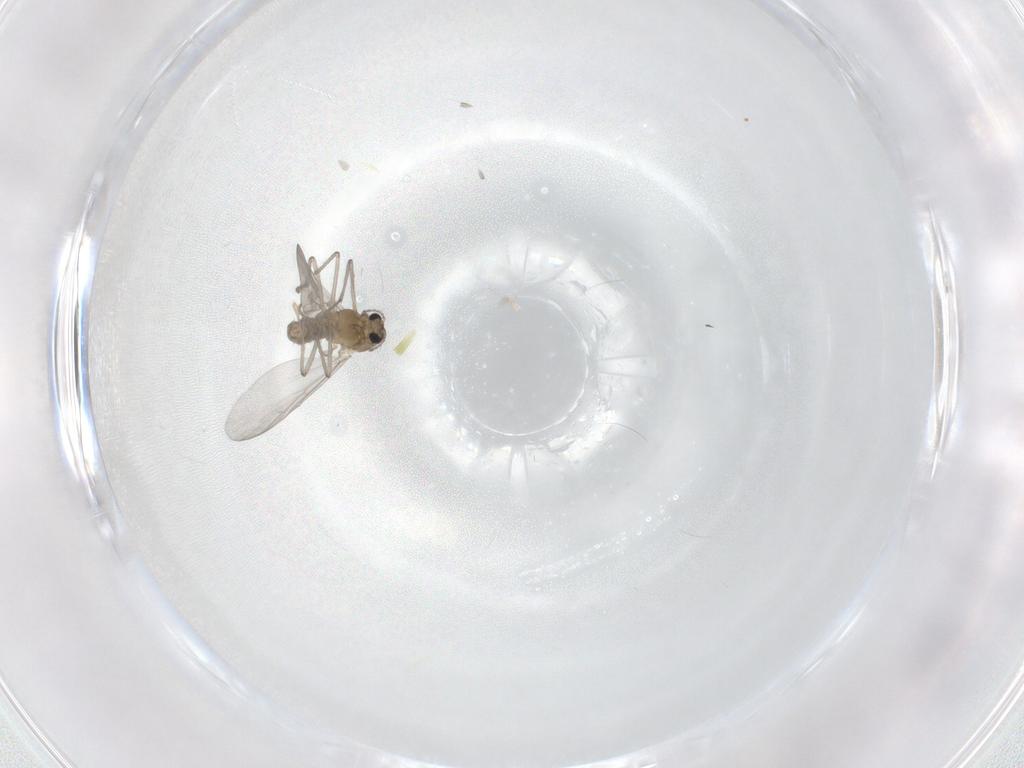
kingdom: Animalia
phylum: Arthropoda
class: Insecta
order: Diptera
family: Chironomidae
